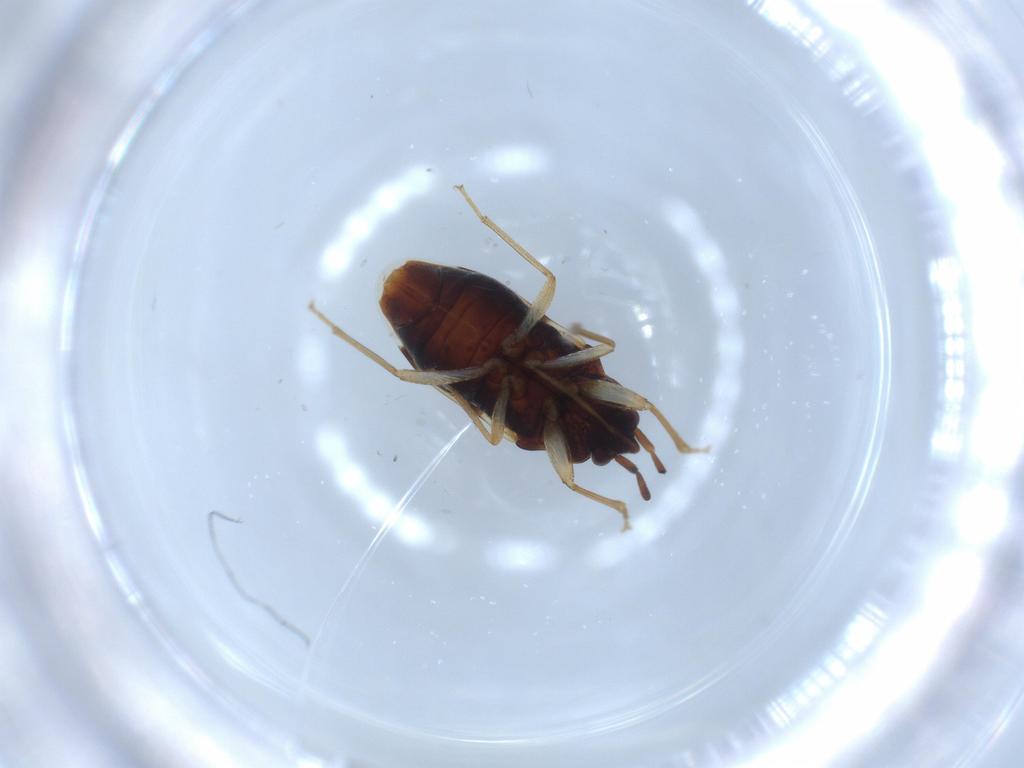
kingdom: Animalia
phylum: Arthropoda
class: Insecta
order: Hemiptera
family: Rhyparochromidae
